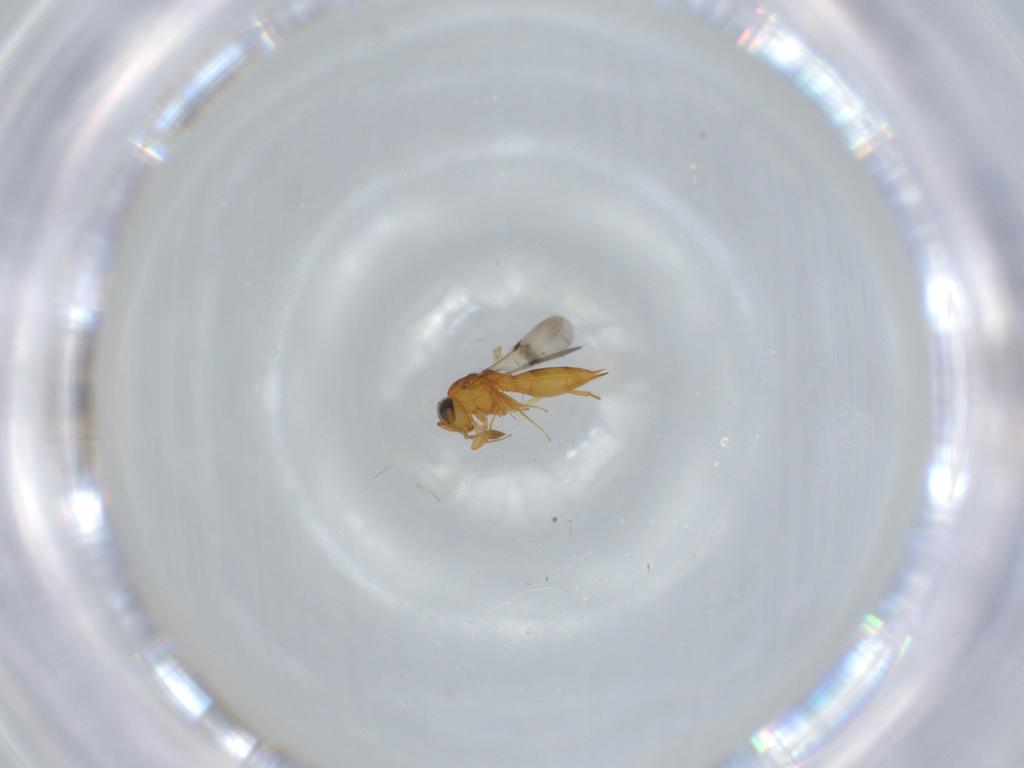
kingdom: Animalia
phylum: Arthropoda
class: Insecta
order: Hymenoptera
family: Scelionidae
